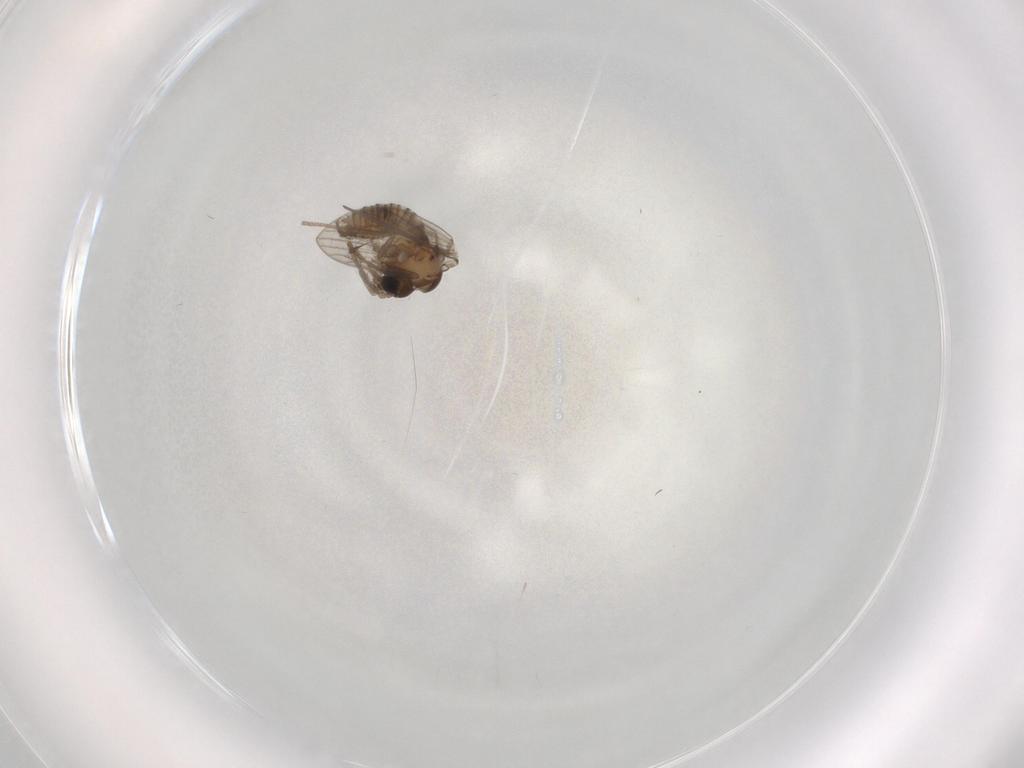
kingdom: Animalia
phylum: Arthropoda
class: Insecta
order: Diptera
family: Psychodidae
